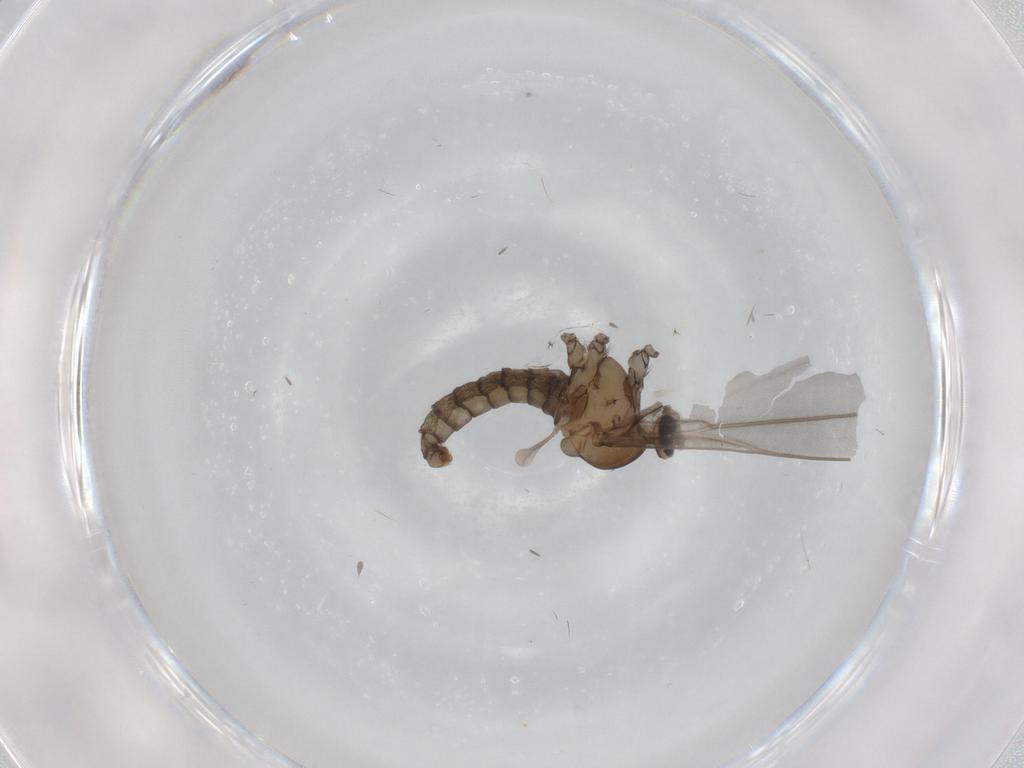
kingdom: Animalia
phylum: Arthropoda
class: Insecta
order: Diptera
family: Cecidomyiidae
